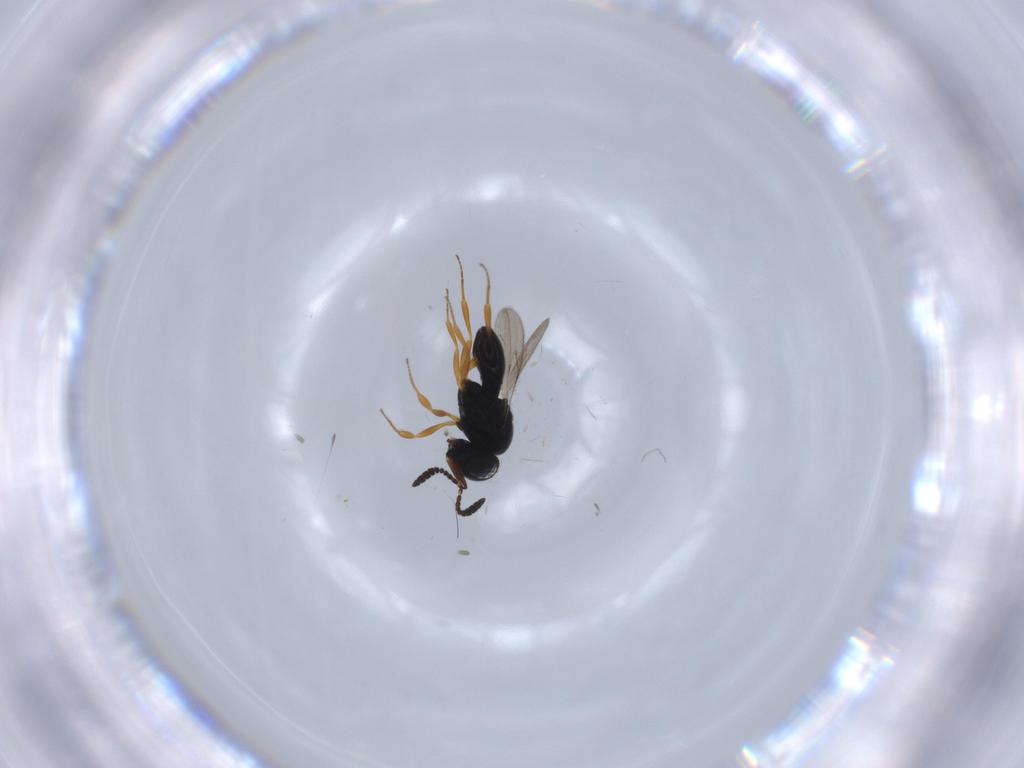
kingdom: Animalia
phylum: Arthropoda
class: Insecta
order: Hymenoptera
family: Scelionidae
